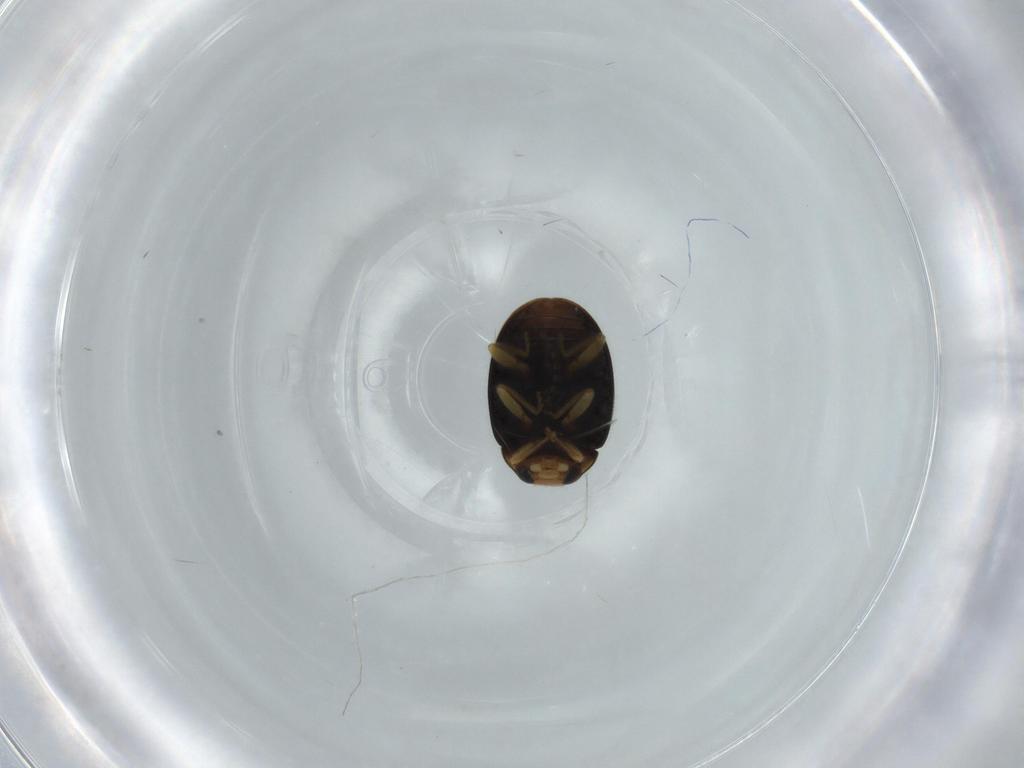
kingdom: Animalia
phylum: Arthropoda
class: Insecta
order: Coleoptera
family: Coccinellidae
